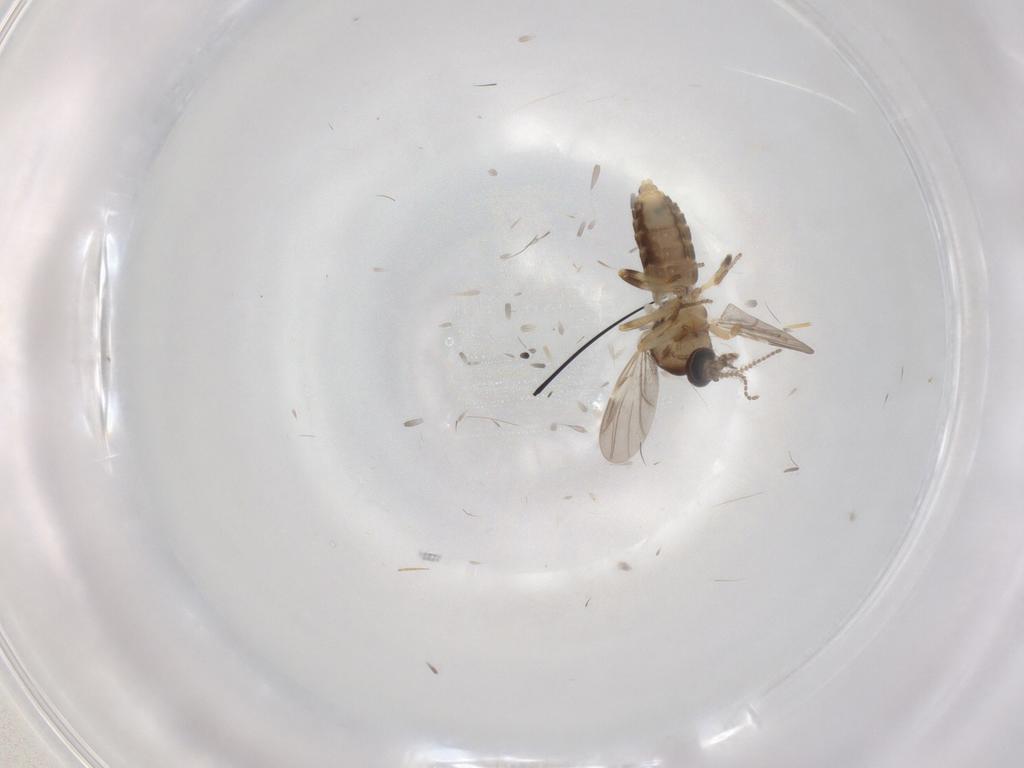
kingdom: Animalia
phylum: Arthropoda
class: Insecta
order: Diptera
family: Ceratopogonidae
